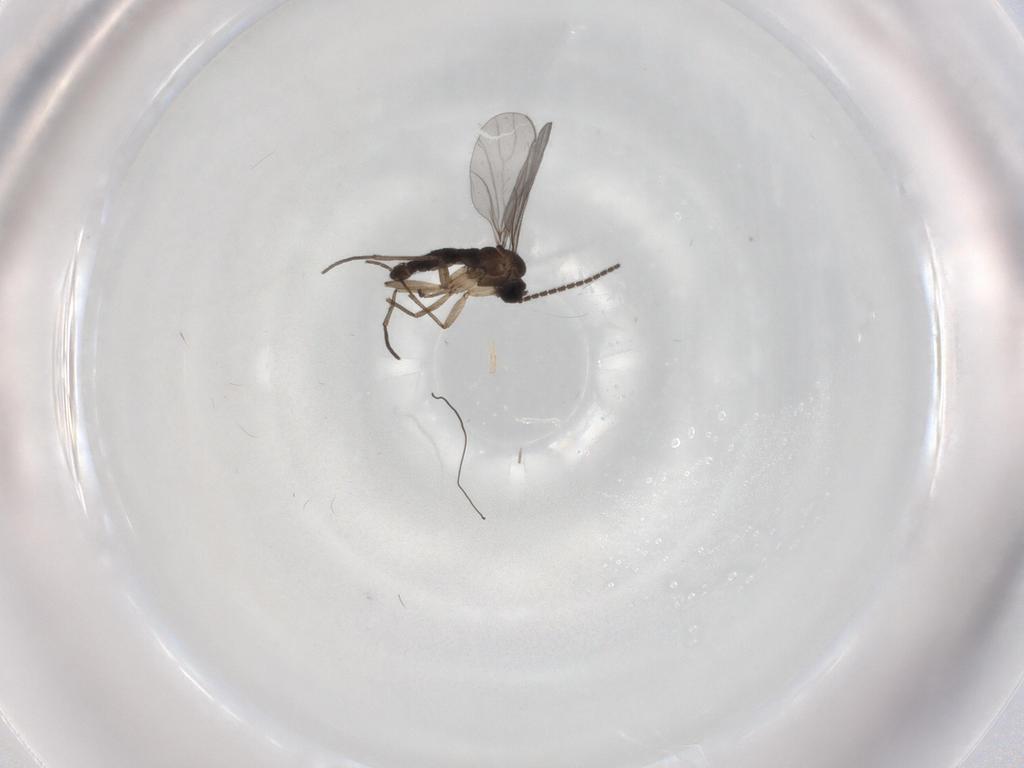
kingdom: Animalia
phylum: Arthropoda
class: Insecta
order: Diptera
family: Sciaridae
